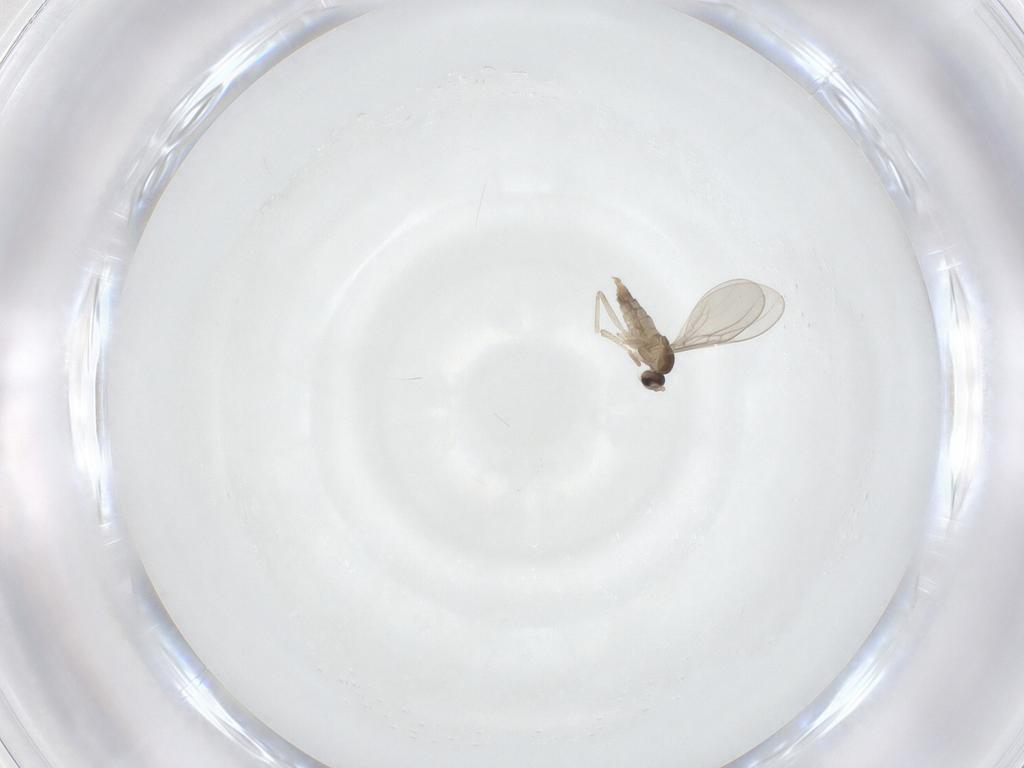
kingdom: Animalia
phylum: Arthropoda
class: Insecta
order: Diptera
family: Cecidomyiidae
